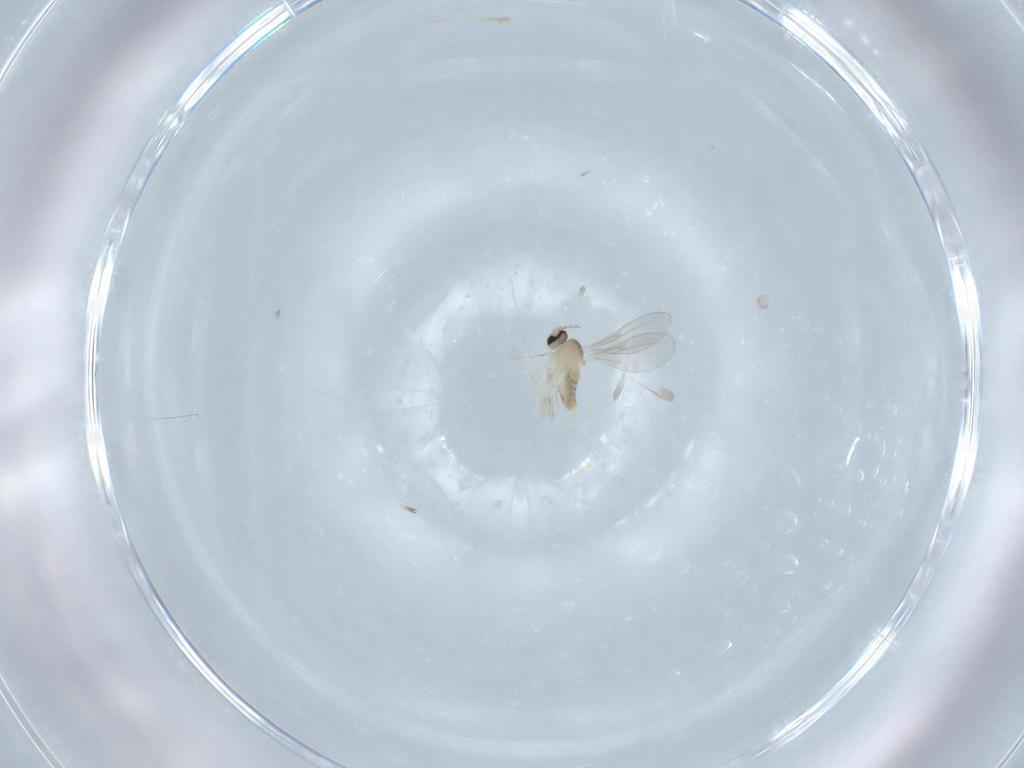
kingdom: Animalia
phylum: Arthropoda
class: Insecta
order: Diptera
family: Cecidomyiidae
